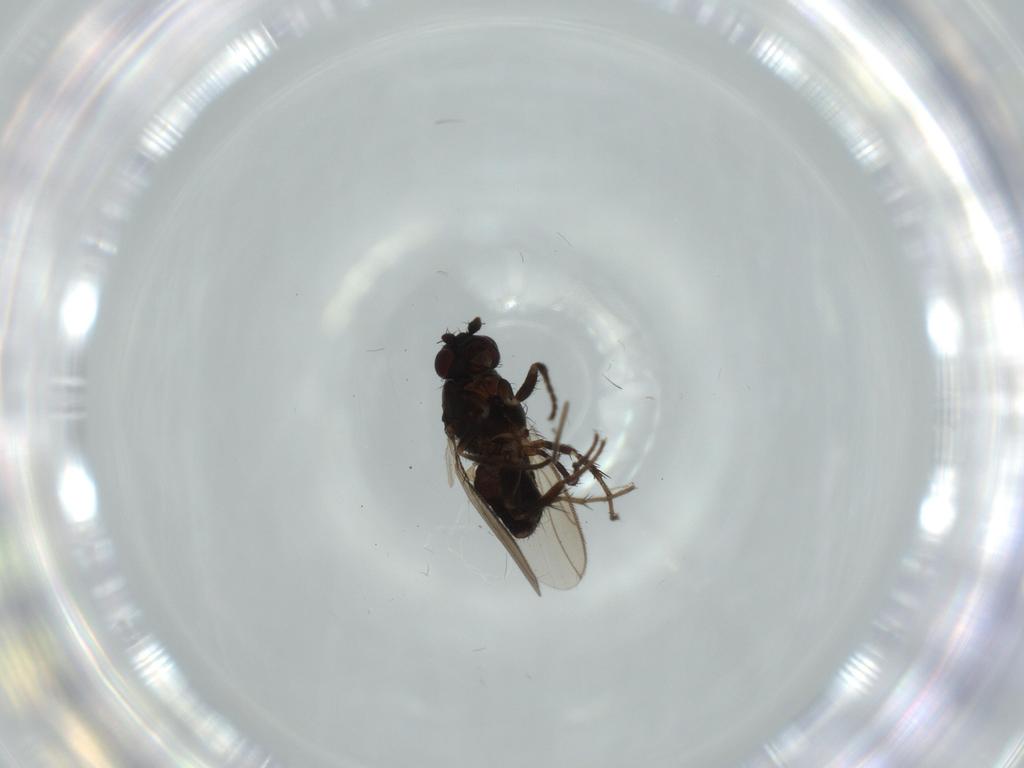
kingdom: Animalia
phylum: Arthropoda
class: Insecta
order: Diptera
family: Sphaeroceridae
